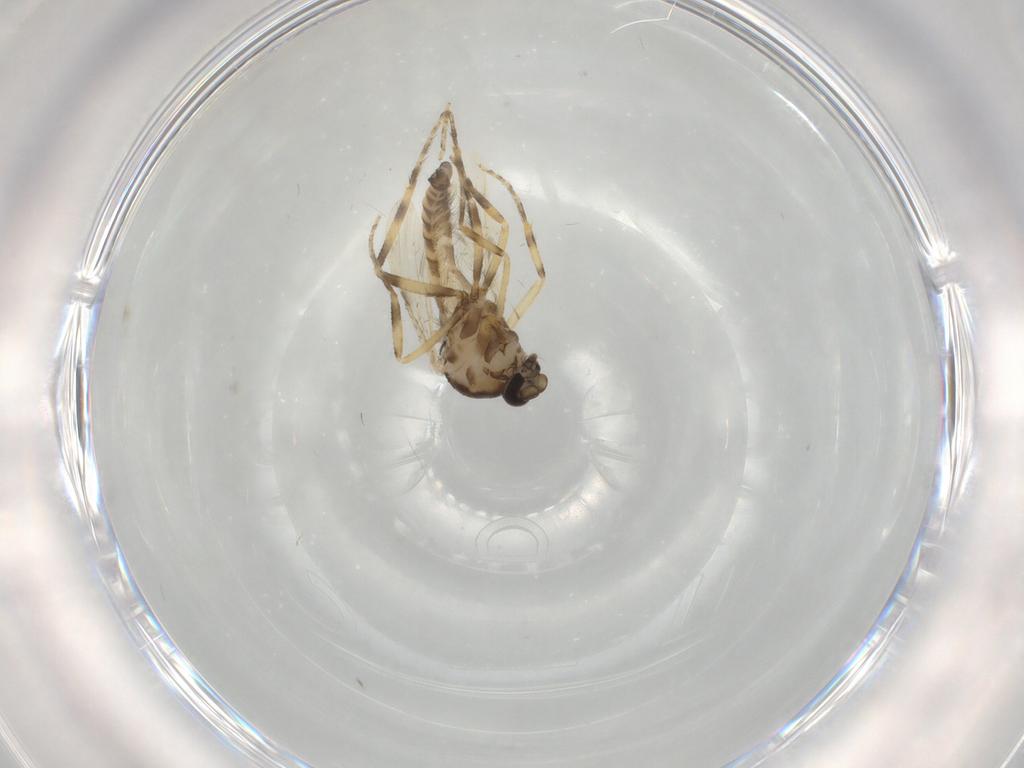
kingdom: Animalia
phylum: Arthropoda
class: Insecta
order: Diptera
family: Ceratopogonidae
